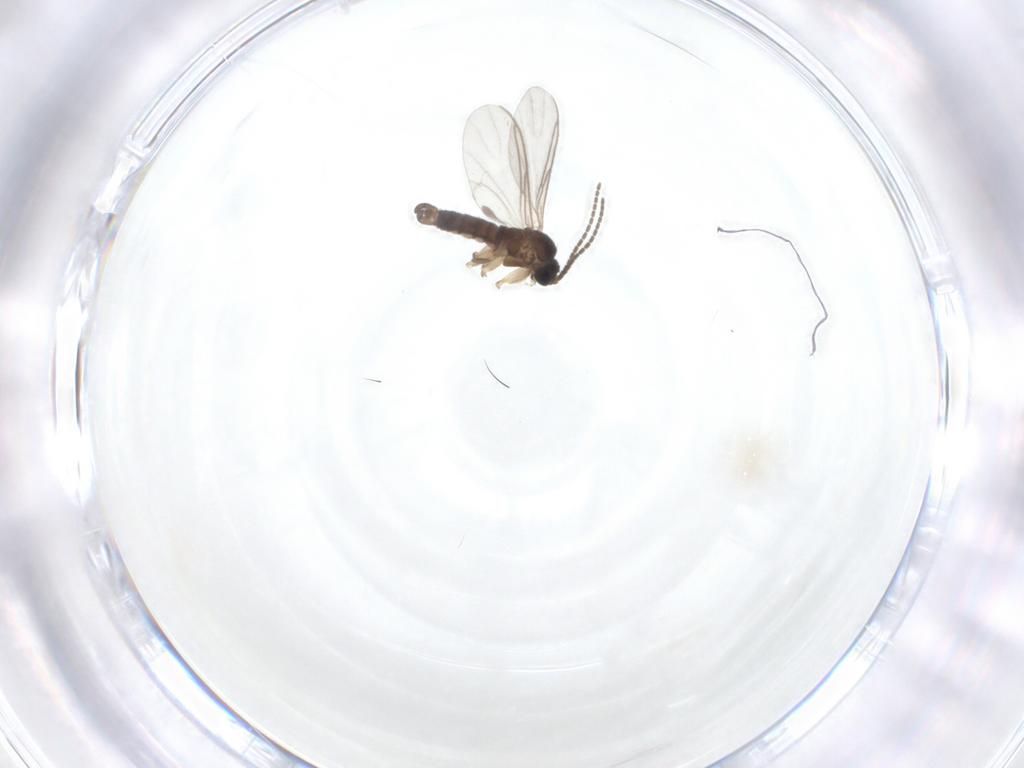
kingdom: Animalia
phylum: Arthropoda
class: Insecta
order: Diptera
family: Sciaridae
